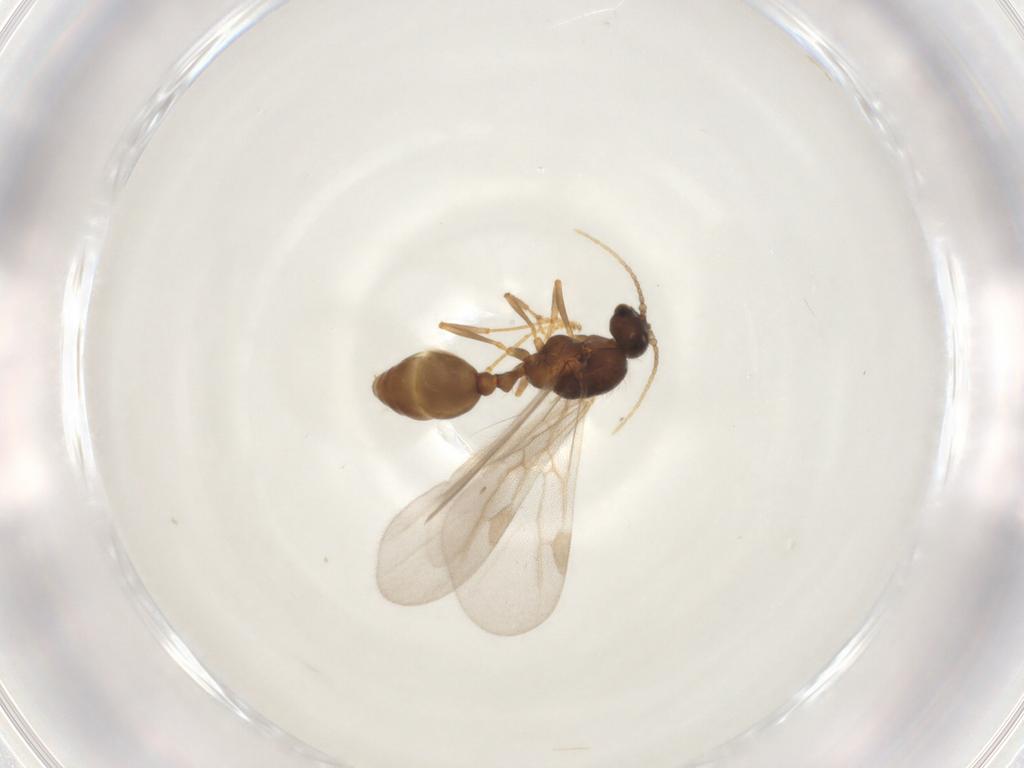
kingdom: Animalia
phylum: Arthropoda
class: Insecta
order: Hymenoptera
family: Formicidae
